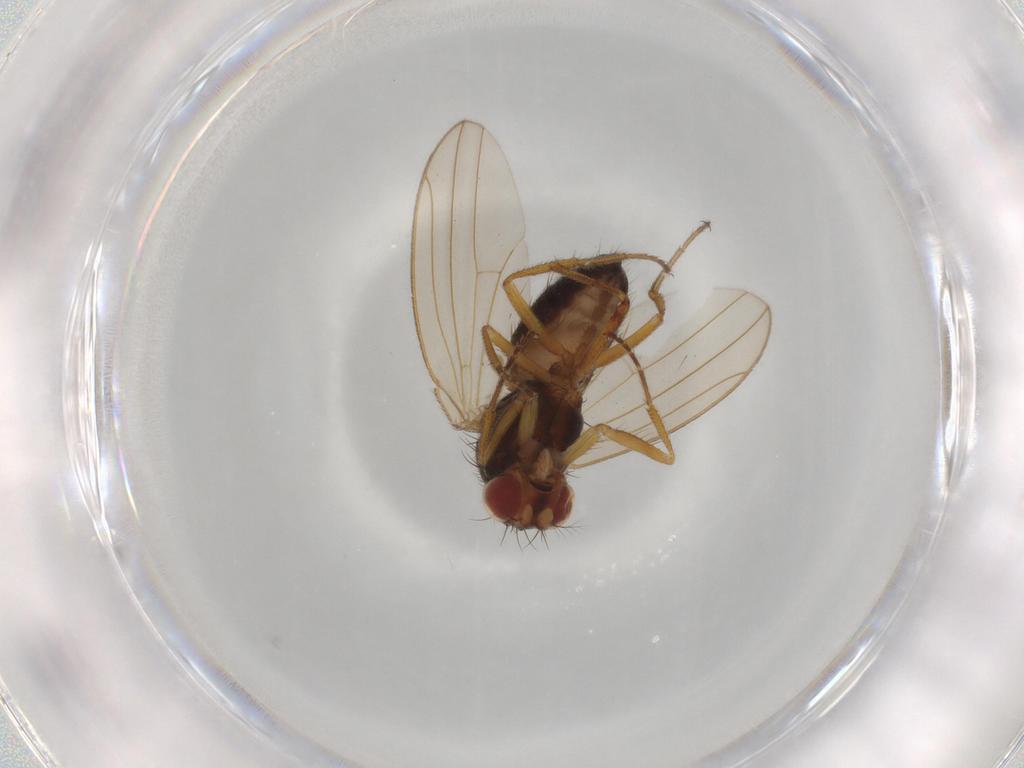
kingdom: Animalia
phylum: Arthropoda
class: Insecta
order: Diptera
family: Drosophilidae
